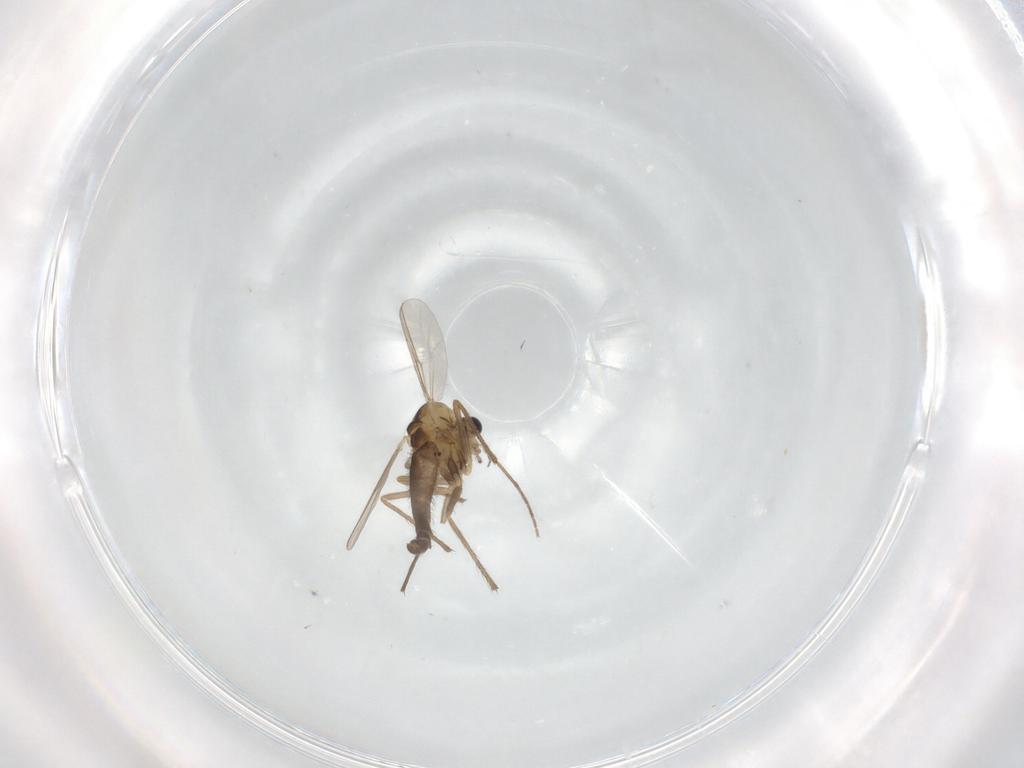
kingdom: Animalia
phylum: Arthropoda
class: Insecta
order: Diptera
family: Chironomidae
